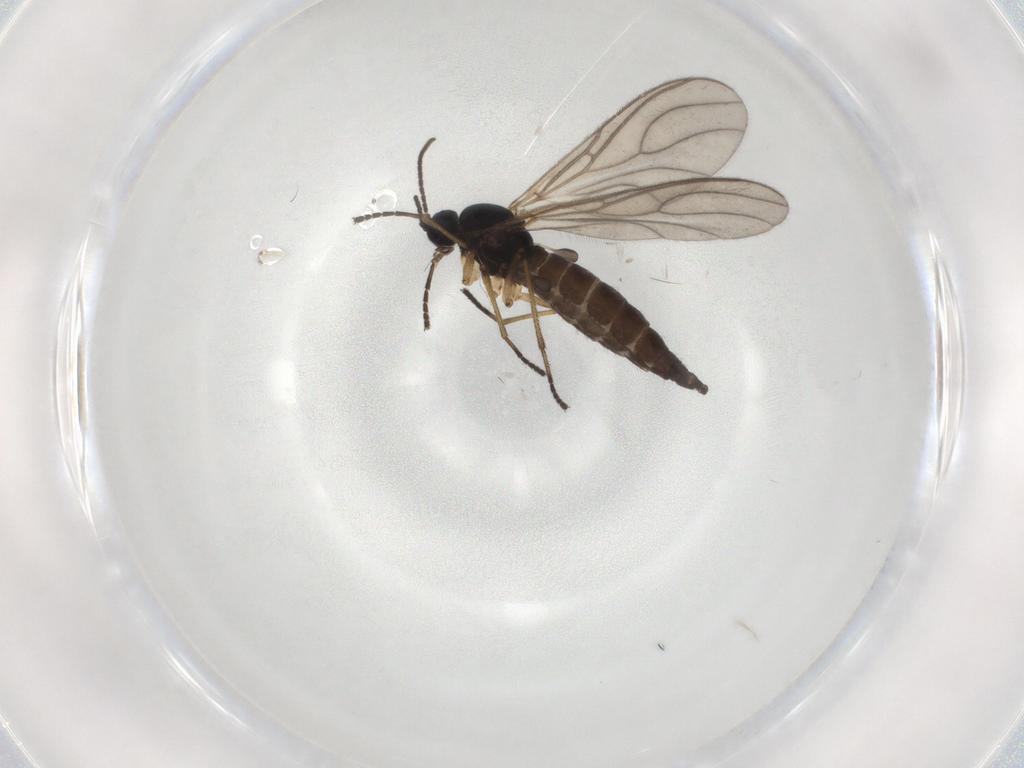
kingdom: Animalia
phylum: Arthropoda
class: Insecta
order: Diptera
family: Sciaridae
